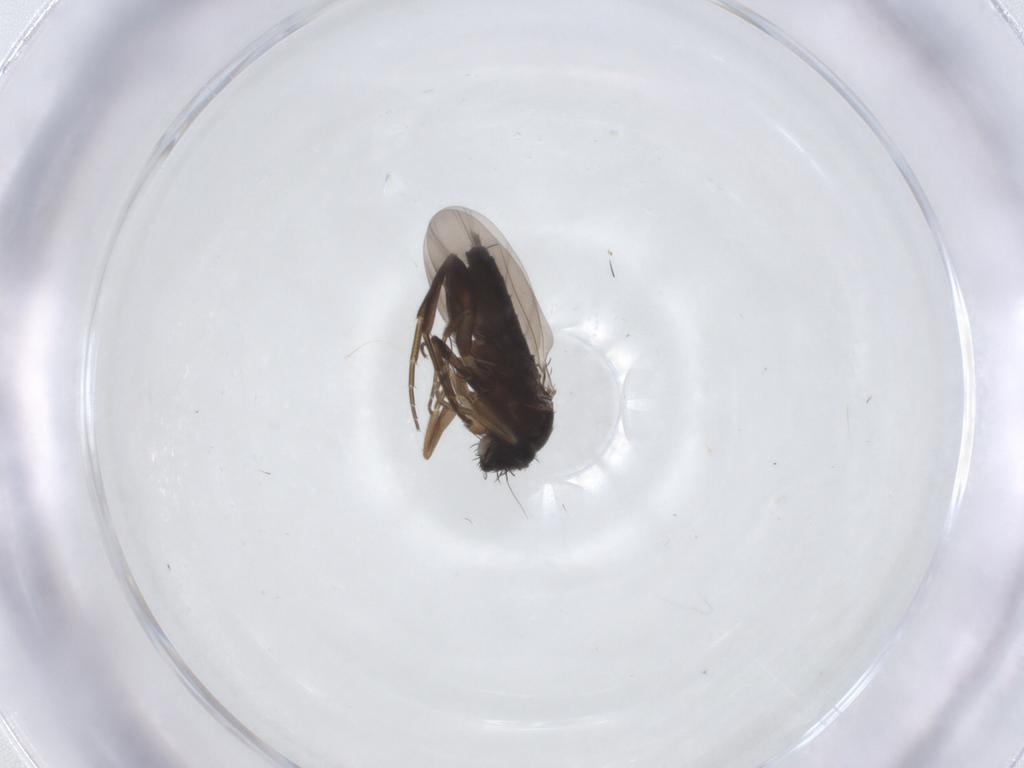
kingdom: Animalia
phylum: Arthropoda
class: Insecta
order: Diptera
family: Phoridae
